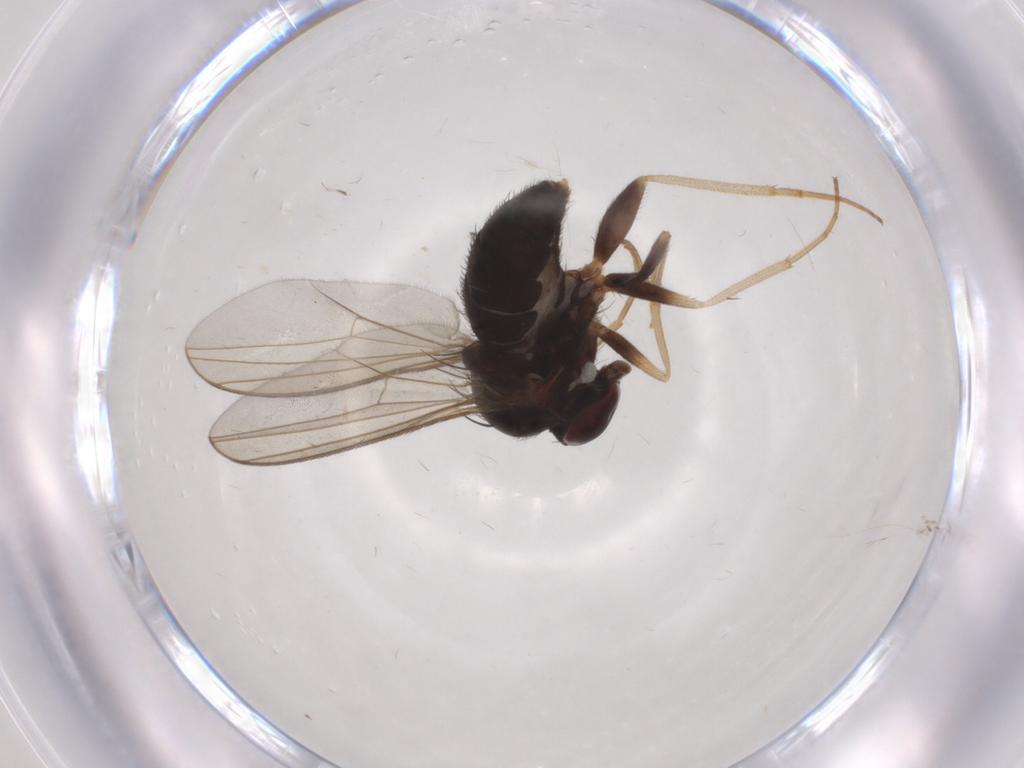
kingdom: Animalia
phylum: Arthropoda
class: Insecta
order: Diptera
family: Dolichopodidae
